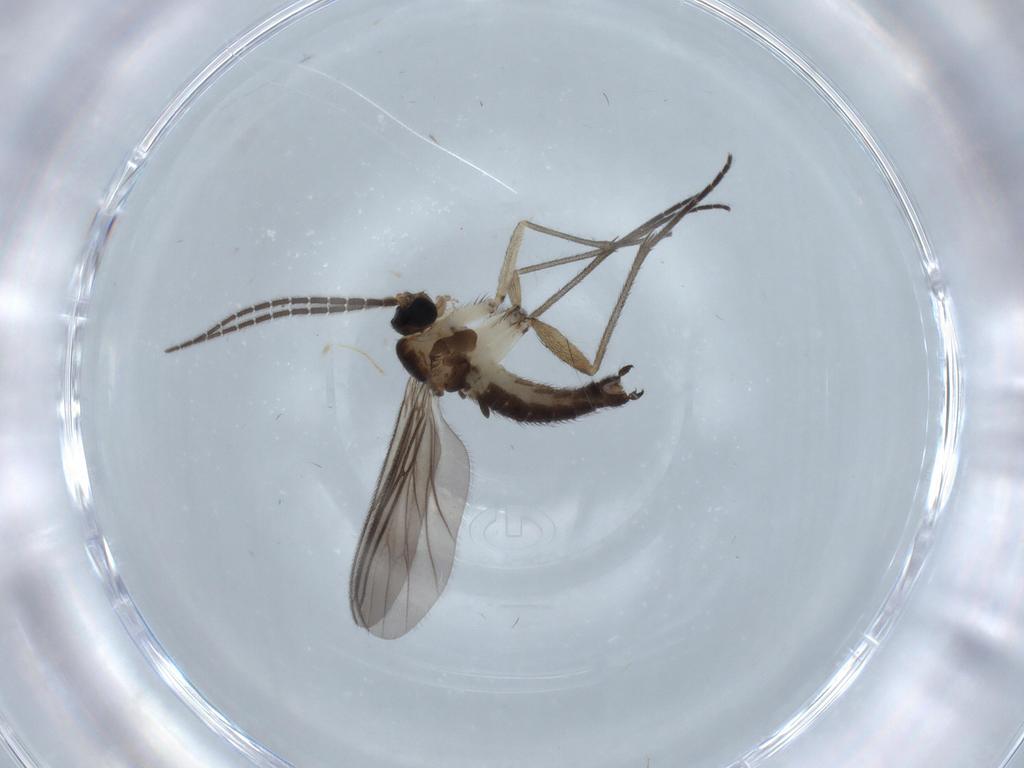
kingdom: Animalia
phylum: Arthropoda
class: Insecta
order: Diptera
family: Sciaridae
